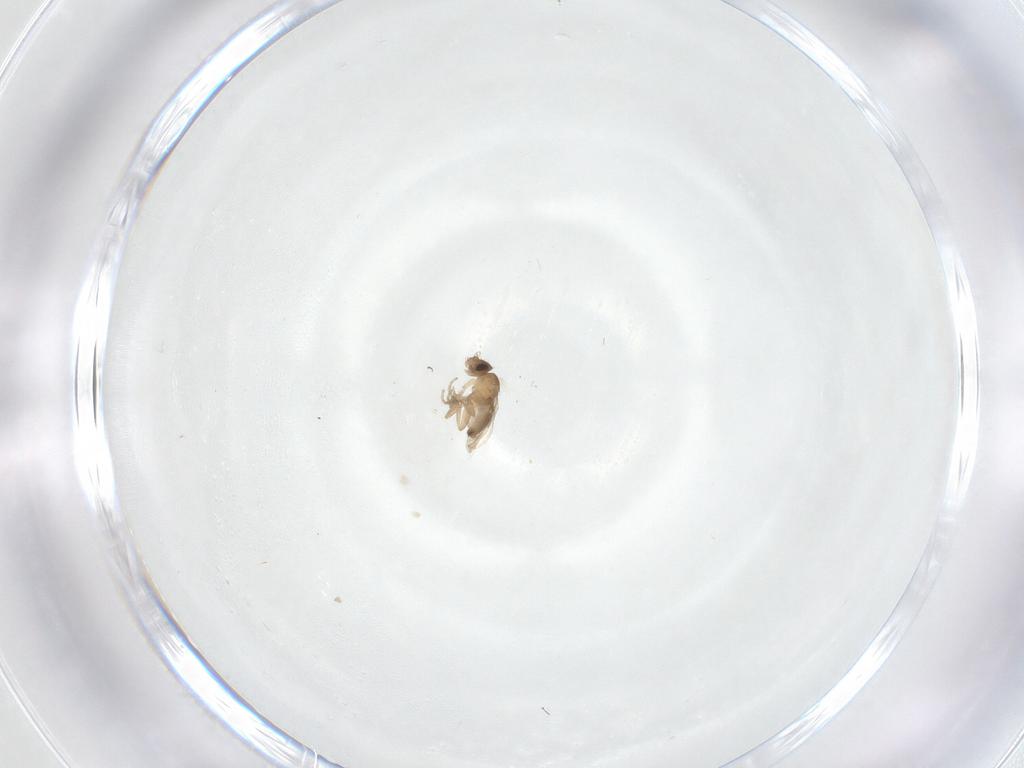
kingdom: Animalia
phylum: Arthropoda
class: Insecta
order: Diptera
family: Phoridae
